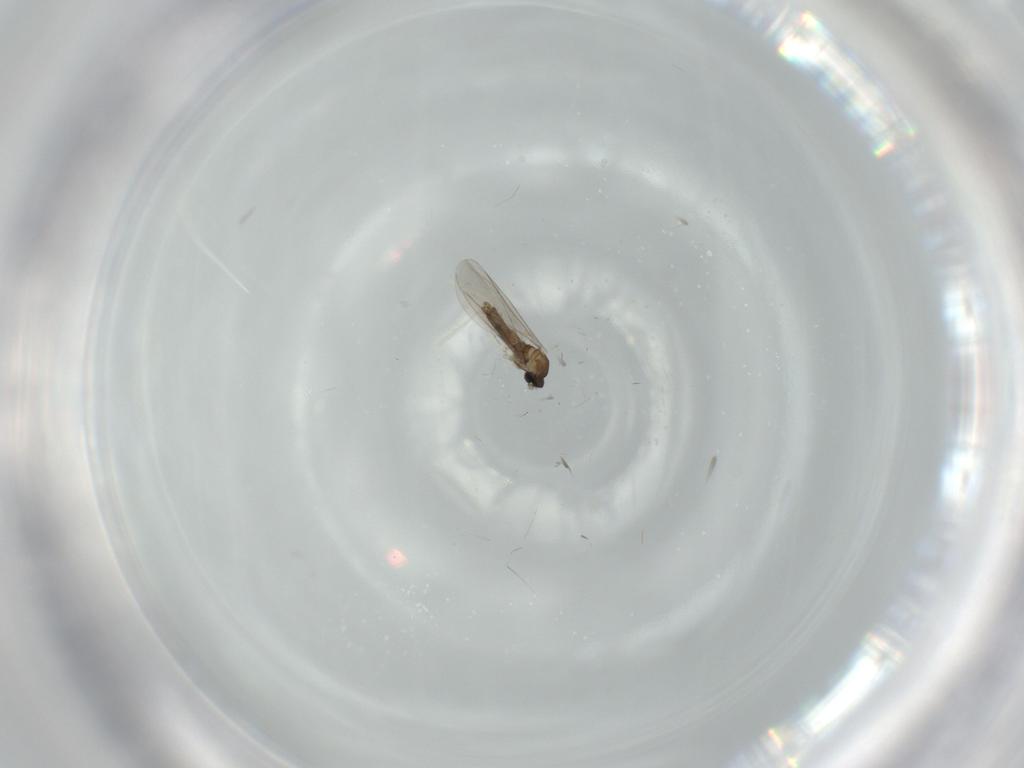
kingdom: Animalia
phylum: Arthropoda
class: Insecta
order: Diptera
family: Cecidomyiidae
